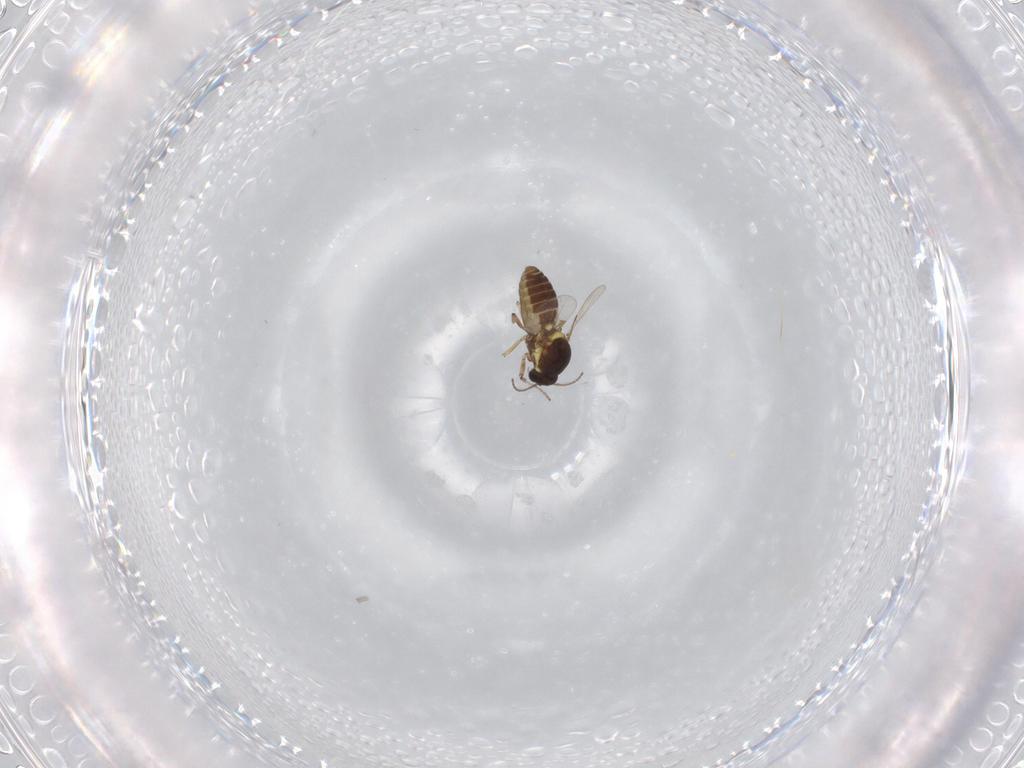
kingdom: Animalia
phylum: Arthropoda
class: Insecta
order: Diptera
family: Ceratopogonidae
